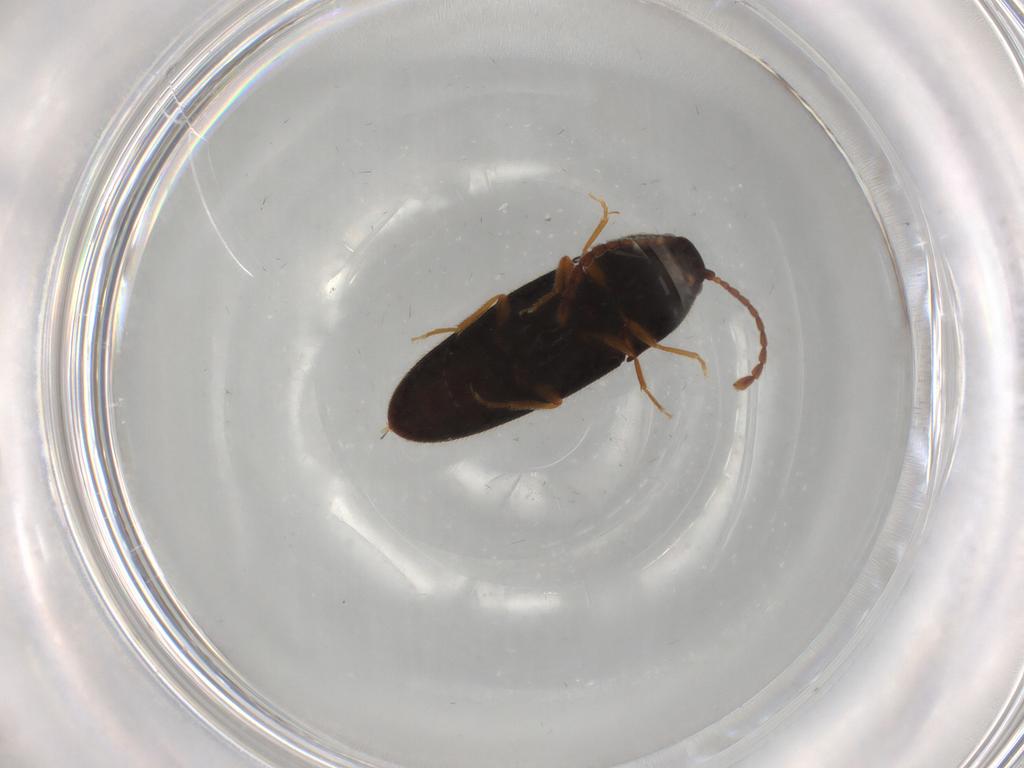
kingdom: Animalia
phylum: Arthropoda
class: Insecta
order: Coleoptera
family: Elateridae
